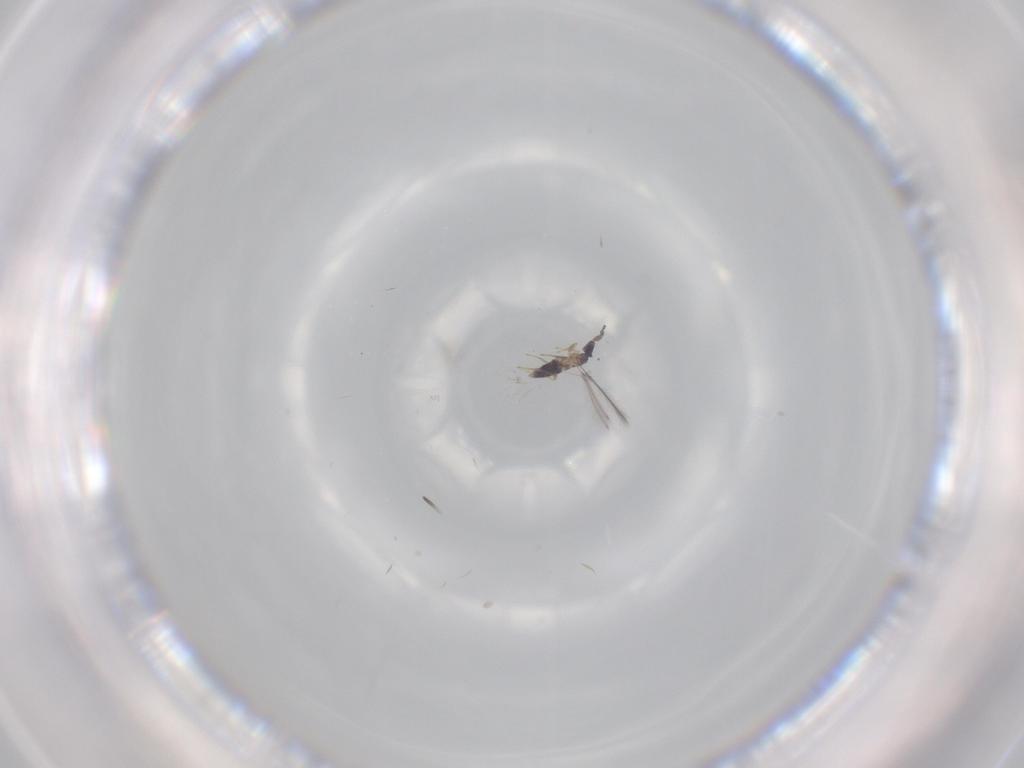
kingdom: Animalia
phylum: Arthropoda
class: Insecta
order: Hymenoptera
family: Mymaridae
